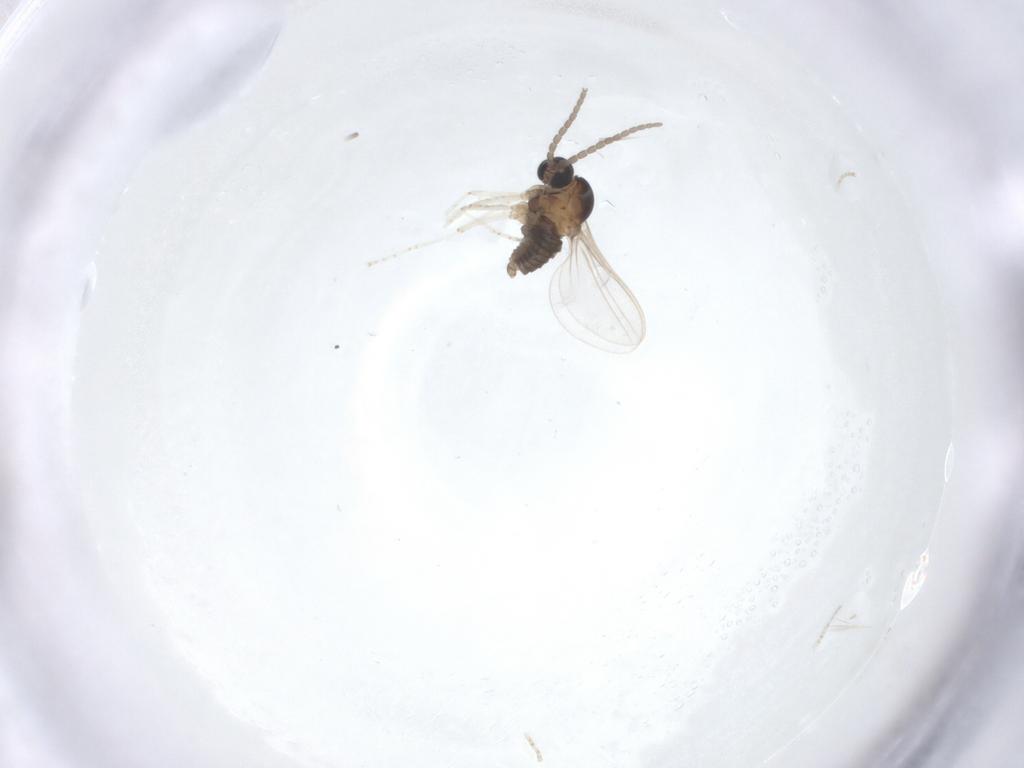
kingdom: Animalia
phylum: Arthropoda
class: Insecta
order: Diptera
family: Cecidomyiidae
